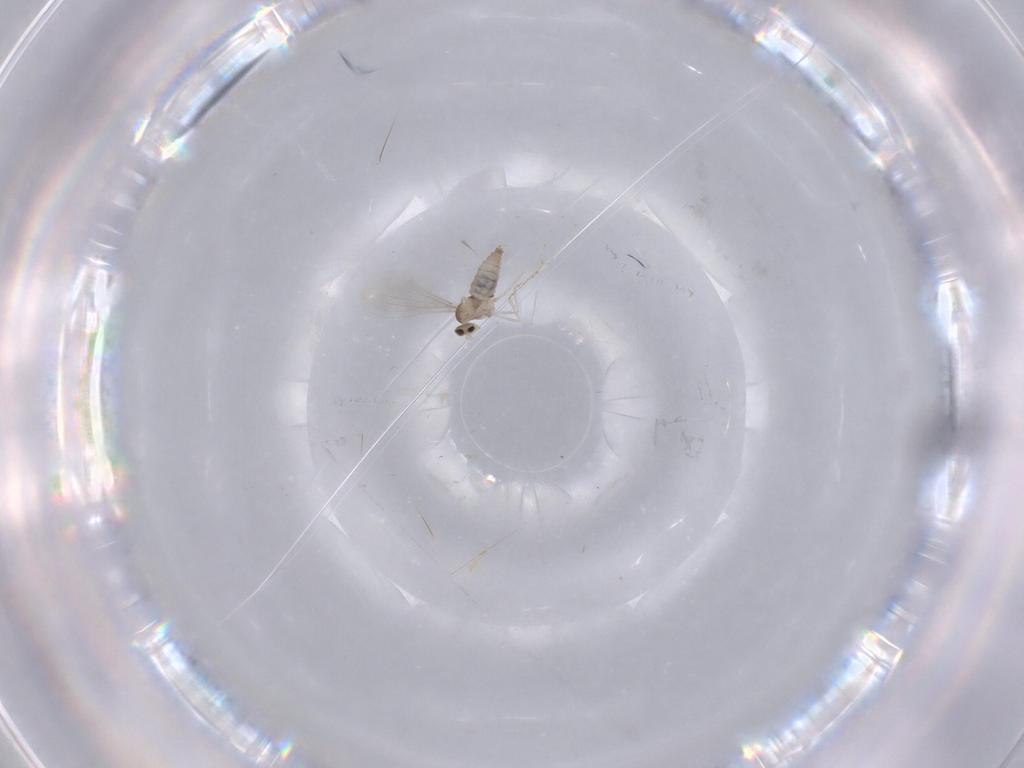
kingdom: Animalia
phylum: Arthropoda
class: Insecta
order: Diptera
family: Cecidomyiidae
